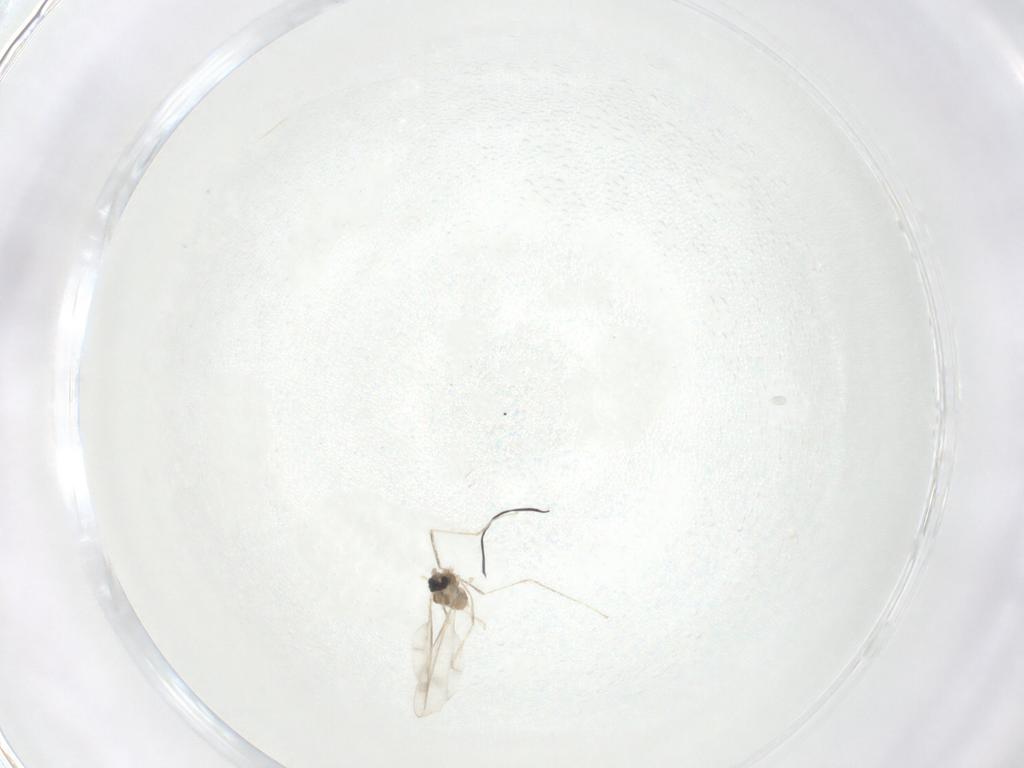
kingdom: Animalia
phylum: Arthropoda
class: Insecta
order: Diptera
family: Ceratopogonidae
